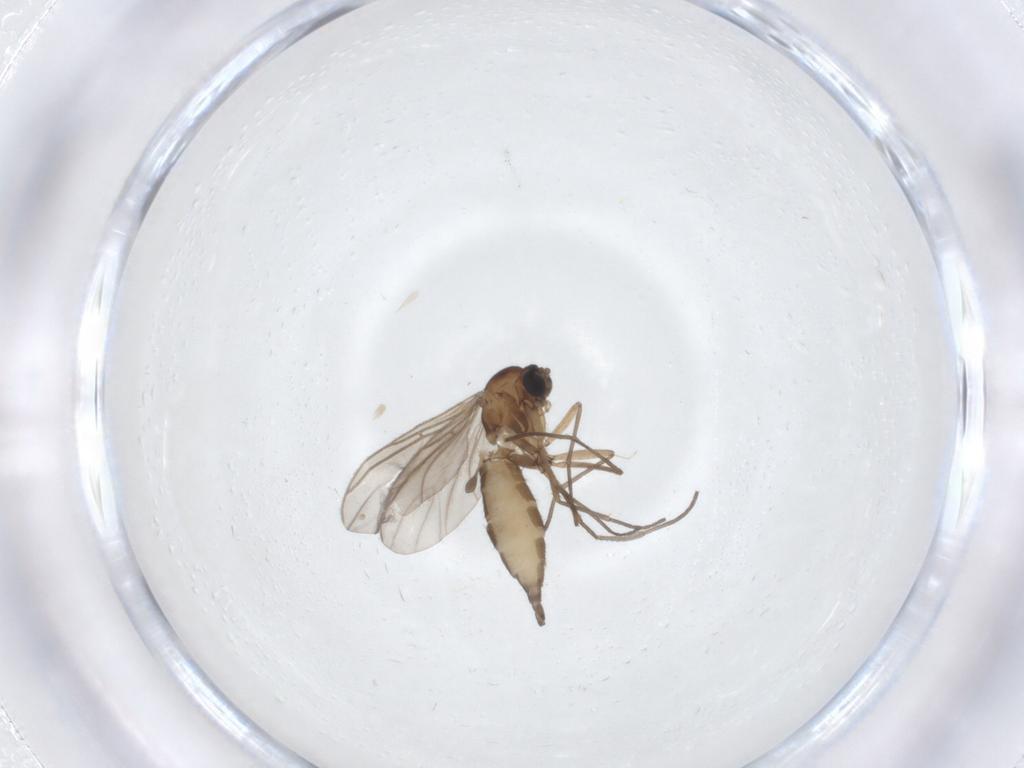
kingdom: Animalia
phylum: Arthropoda
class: Insecta
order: Diptera
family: Sciaridae
